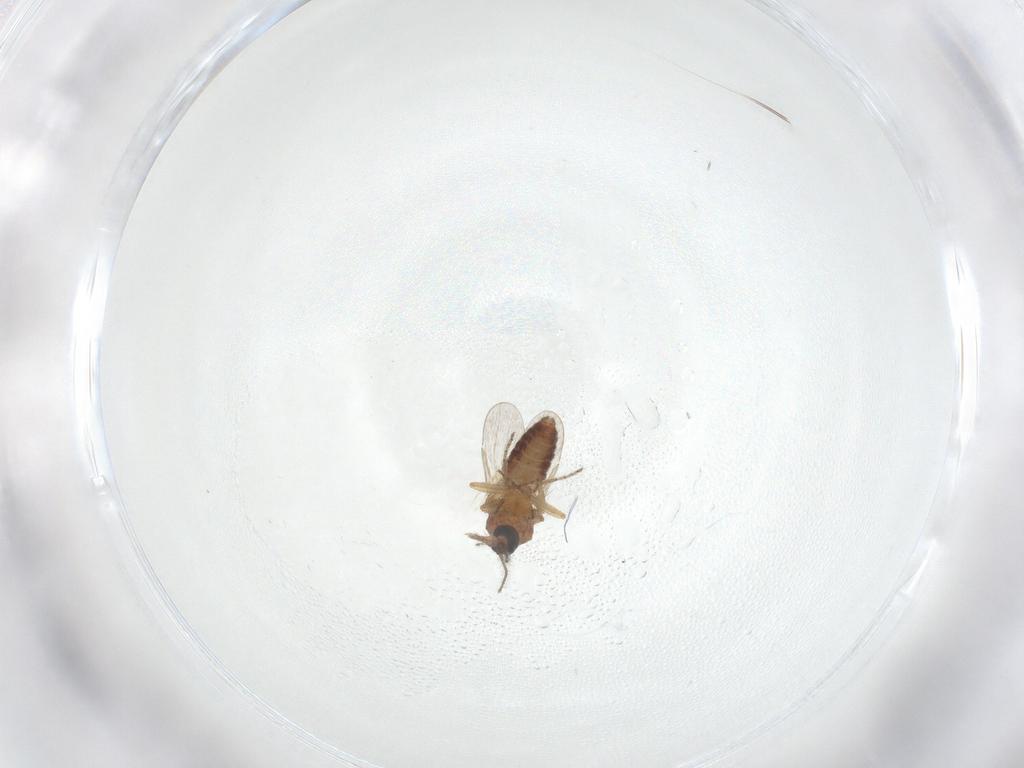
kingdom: Animalia
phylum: Arthropoda
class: Insecta
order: Diptera
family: Ceratopogonidae
